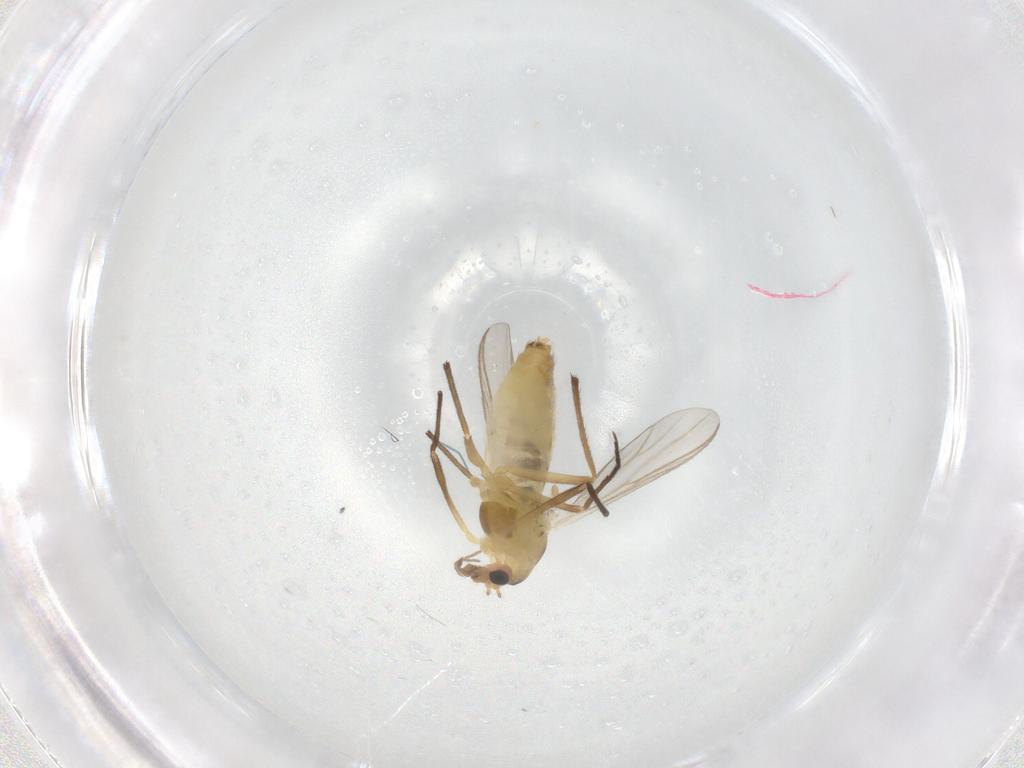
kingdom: Animalia
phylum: Arthropoda
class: Insecta
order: Diptera
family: Chironomidae
